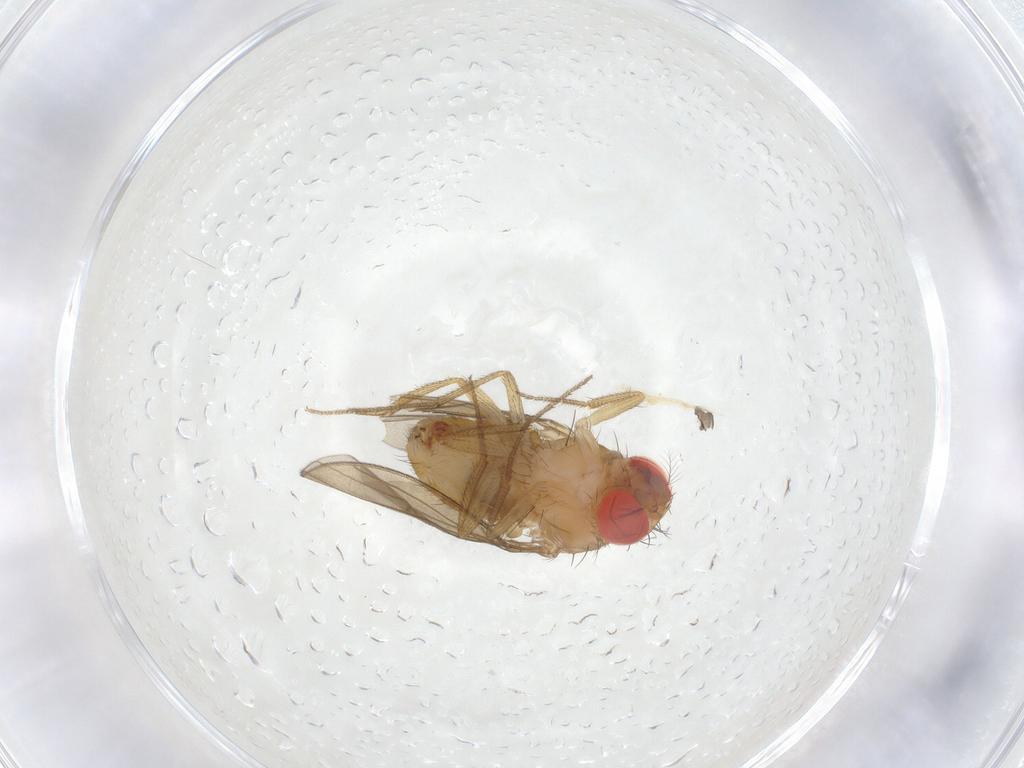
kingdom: Animalia
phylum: Arthropoda
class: Insecta
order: Diptera
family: Drosophilidae
